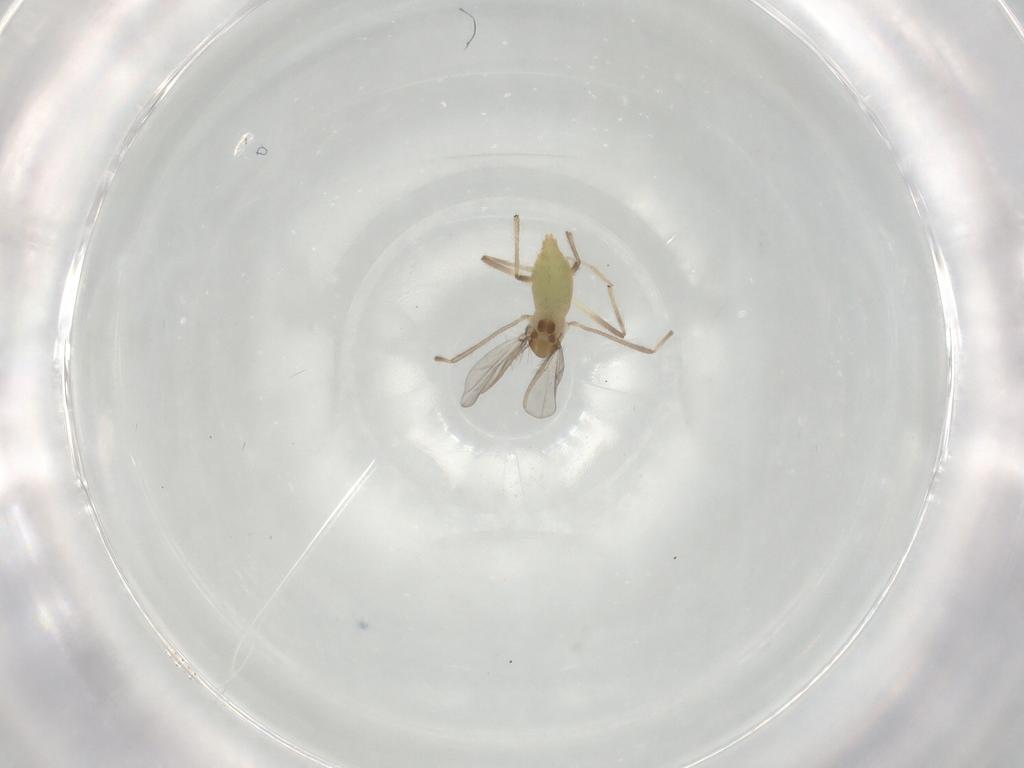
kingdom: Animalia
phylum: Arthropoda
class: Insecta
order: Diptera
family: Chironomidae
